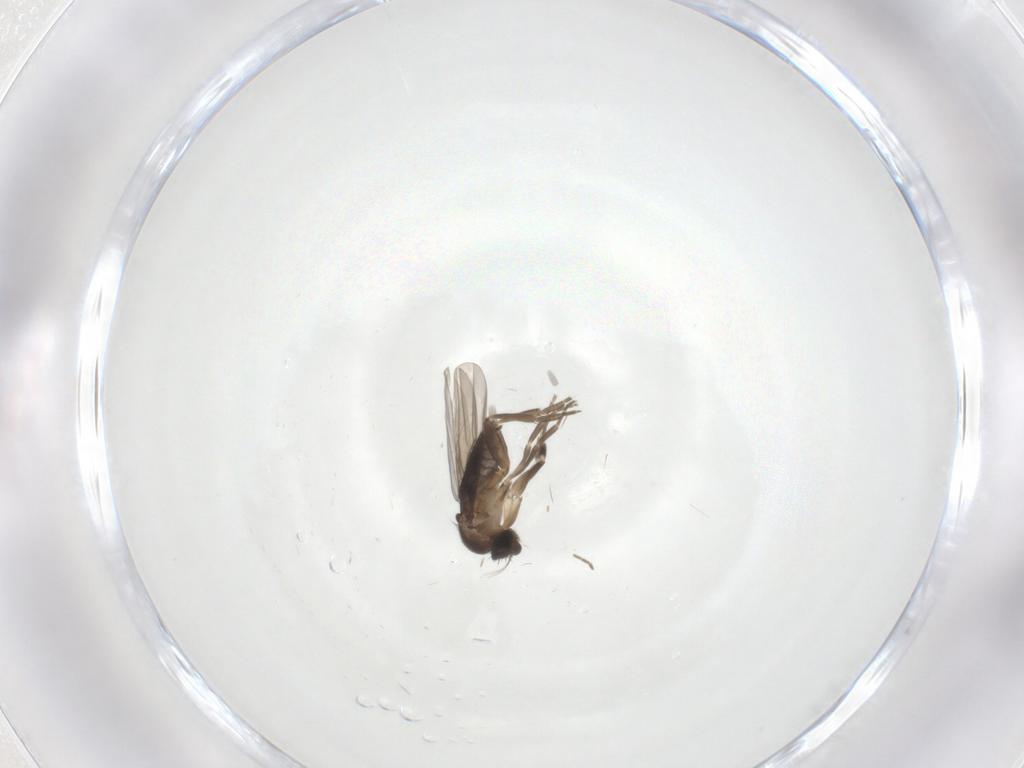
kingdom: Animalia
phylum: Arthropoda
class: Insecta
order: Diptera
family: Phoridae
